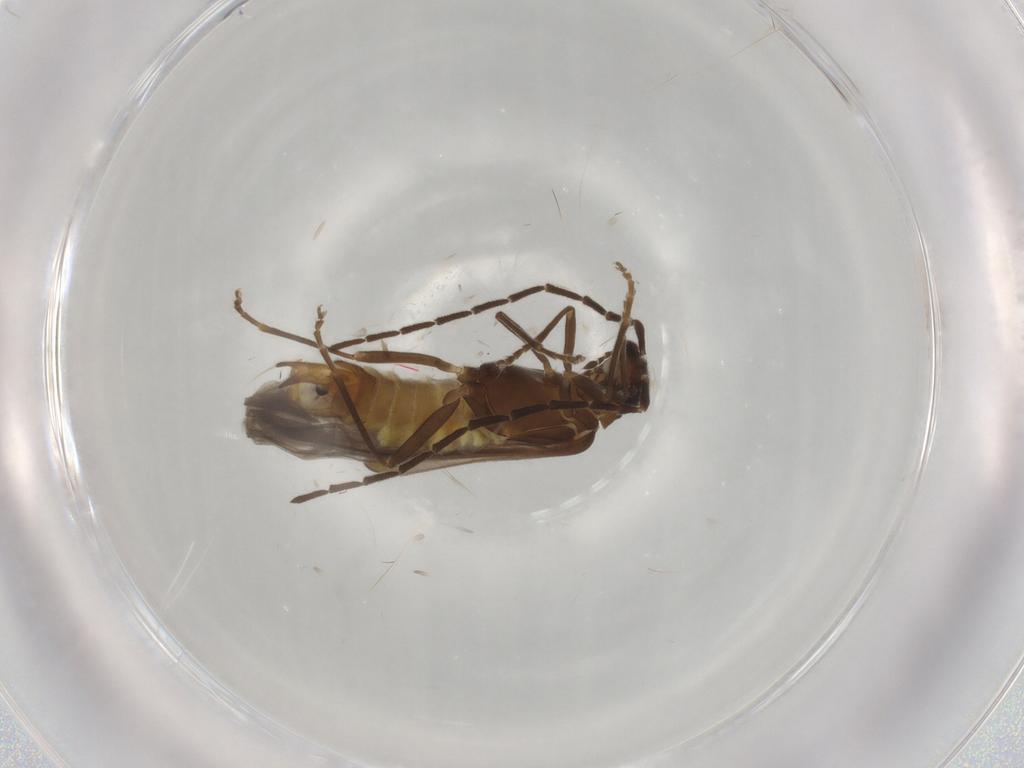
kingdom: Animalia
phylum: Arthropoda
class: Insecta
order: Coleoptera
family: Cantharidae
